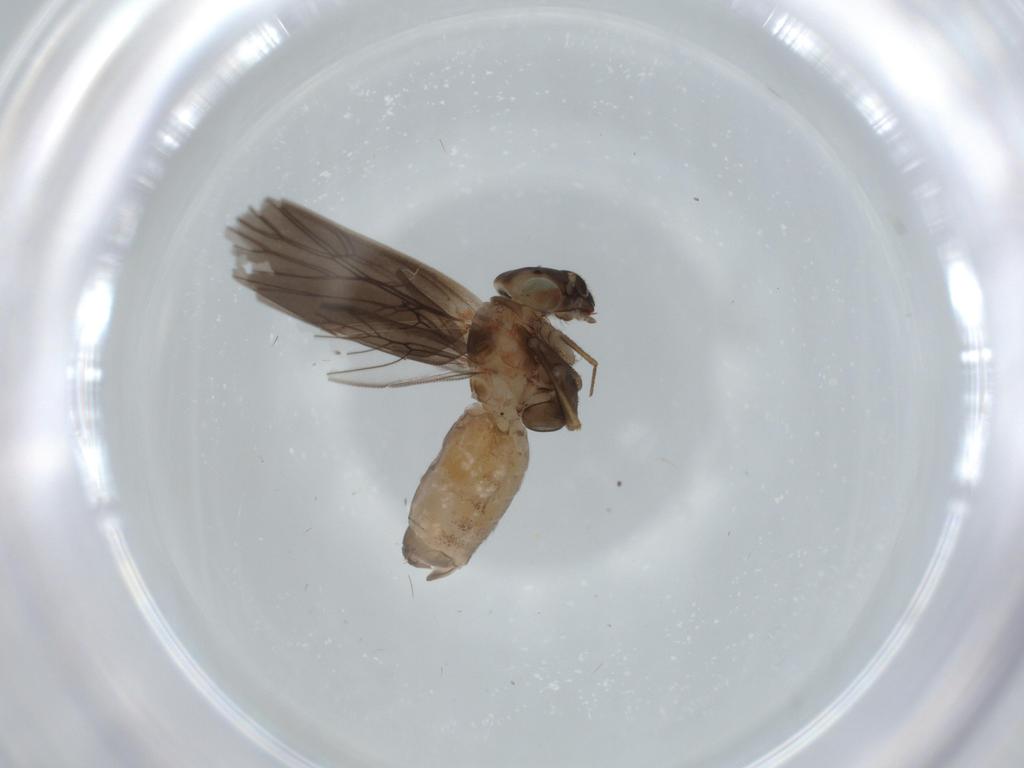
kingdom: Animalia
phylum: Arthropoda
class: Insecta
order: Psocodea
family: Lepidopsocidae
